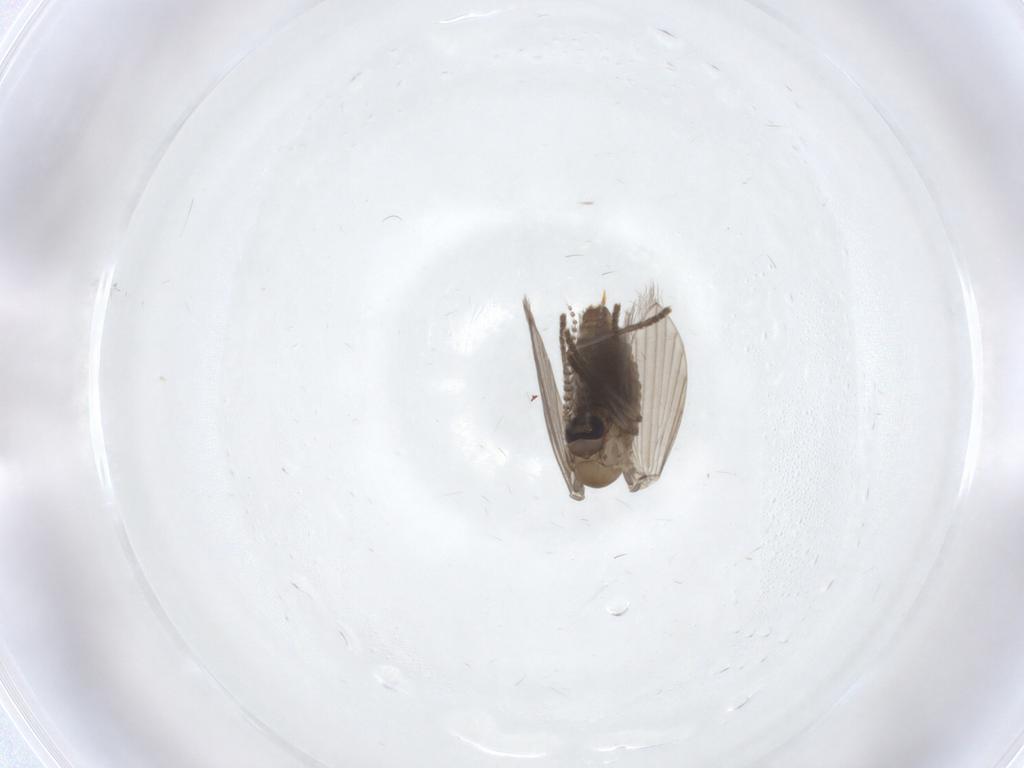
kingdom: Animalia
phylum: Arthropoda
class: Insecta
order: Diptera
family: Psychodidae
